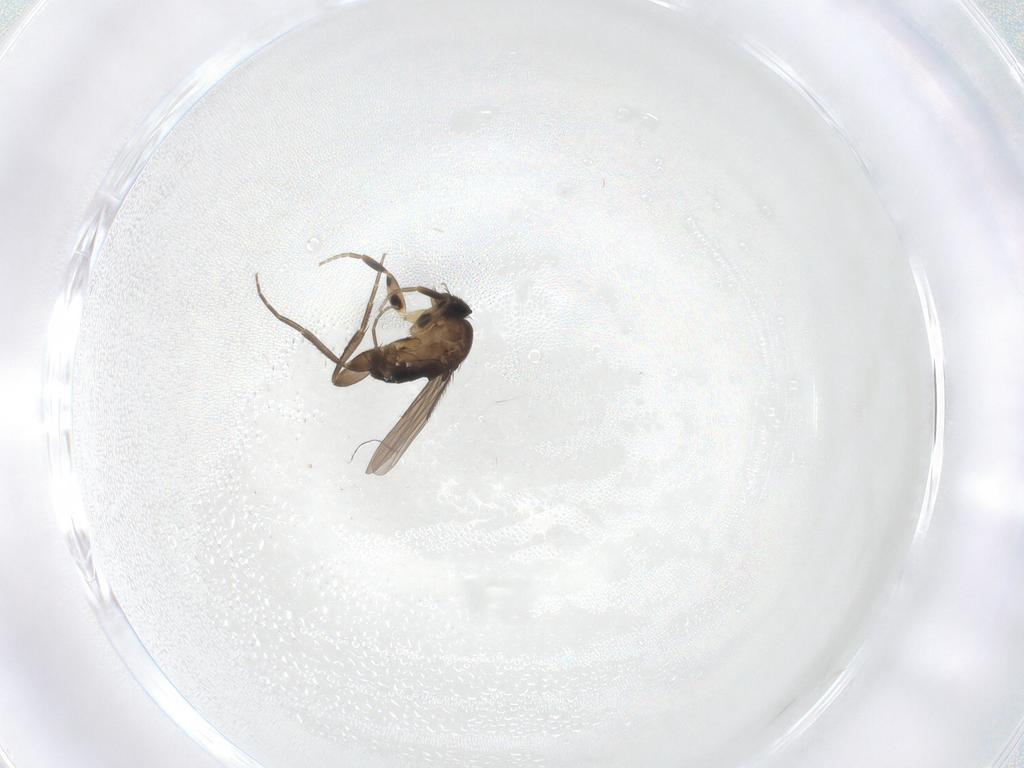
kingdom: Animalia
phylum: Arthropoda
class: Insecta
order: Diptera
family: Phoridae
